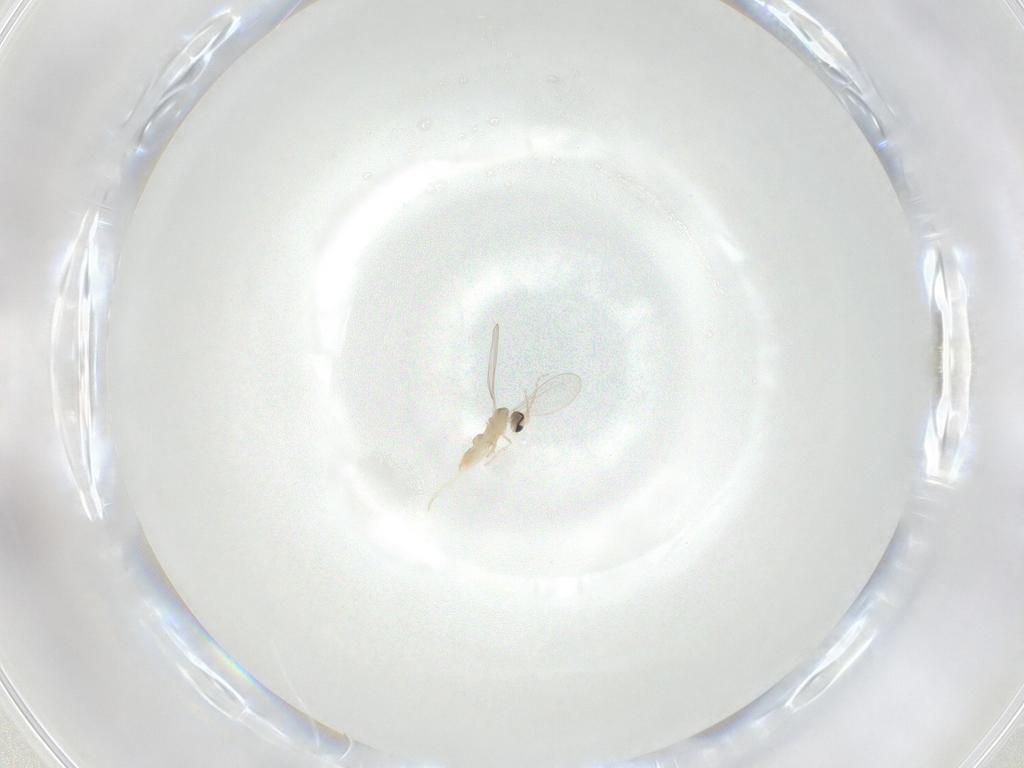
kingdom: Animalia
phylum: Arthropoda
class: Insecta
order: Diptera
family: Cecidomyiidae
